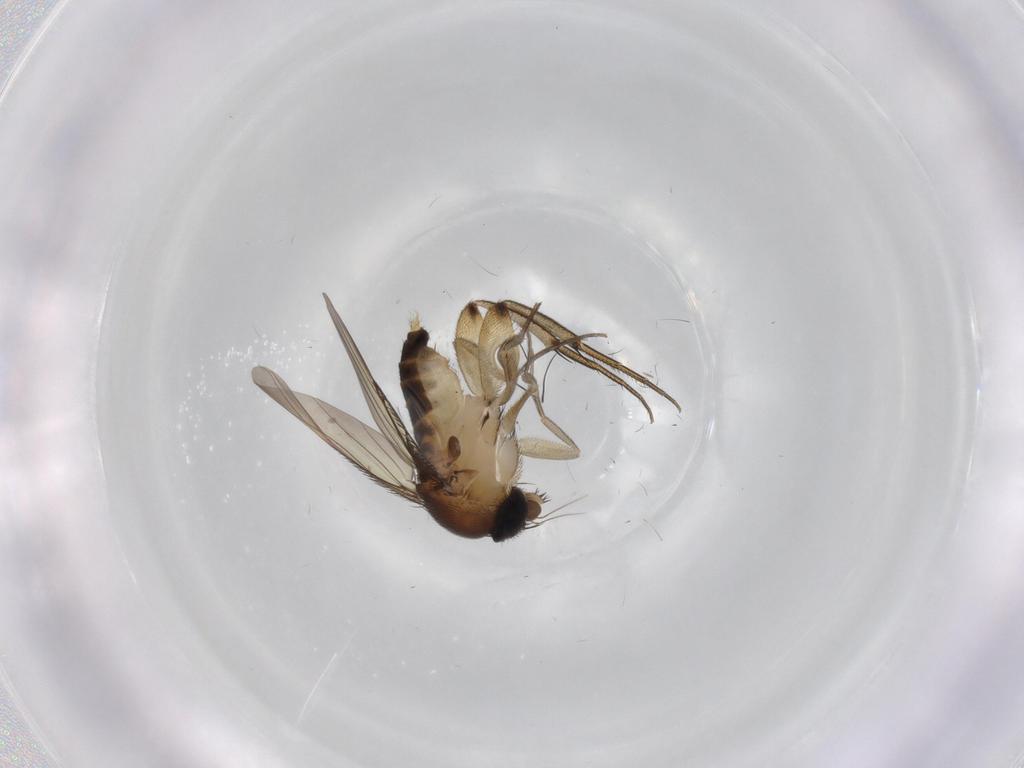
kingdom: Animalia
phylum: Arthropoda
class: Insecta
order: Diptera
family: Phoridae
